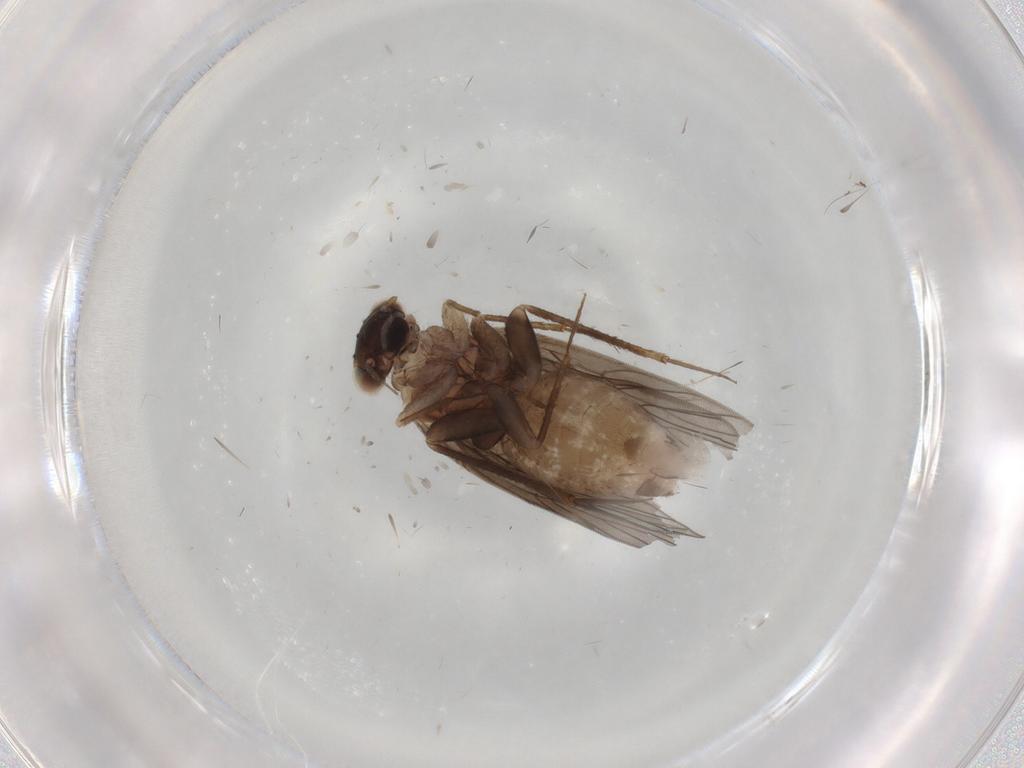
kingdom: Animalia
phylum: Arthropoda
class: Insecta
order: Psocodea
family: Lepidopsocidae
